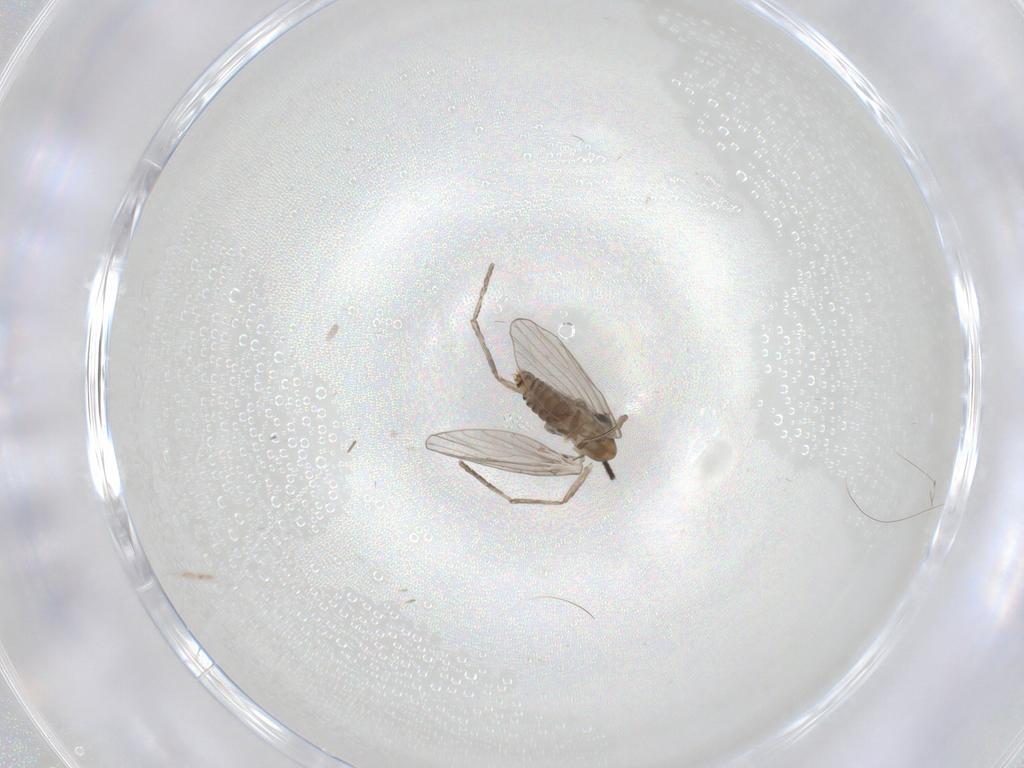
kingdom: Animalia
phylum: Arthropoda
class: Insecta
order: Diptera
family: Psychodidae
